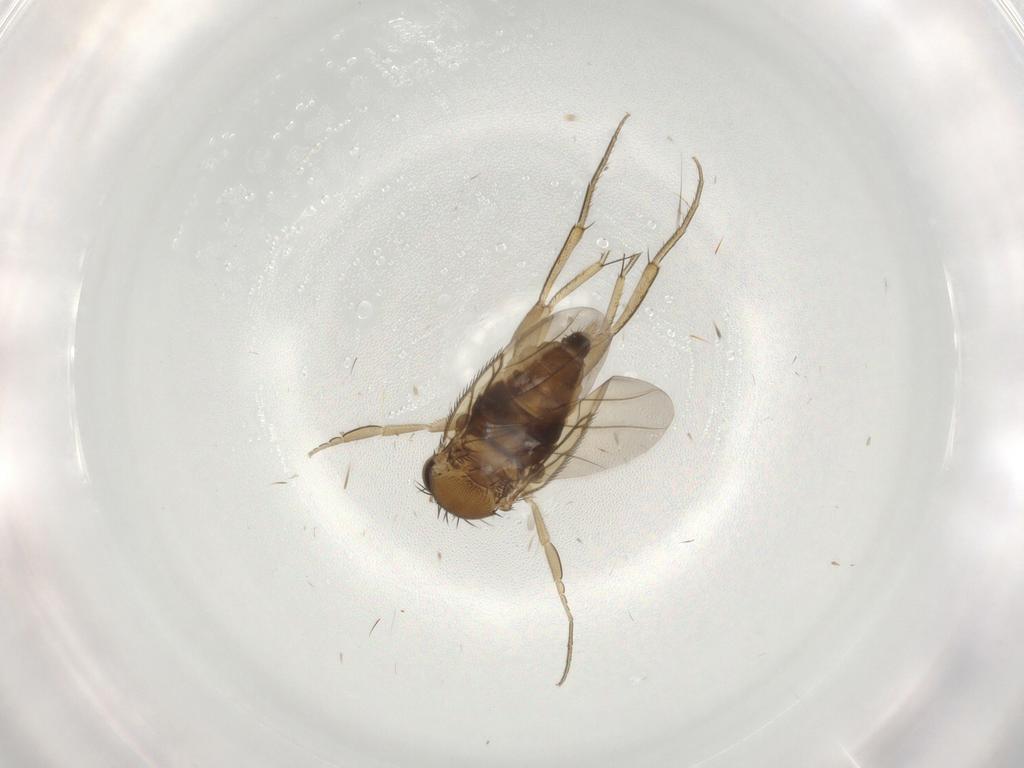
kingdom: Animalia
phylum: Arthropoda
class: Insecta
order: Diptera
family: Phoridae
